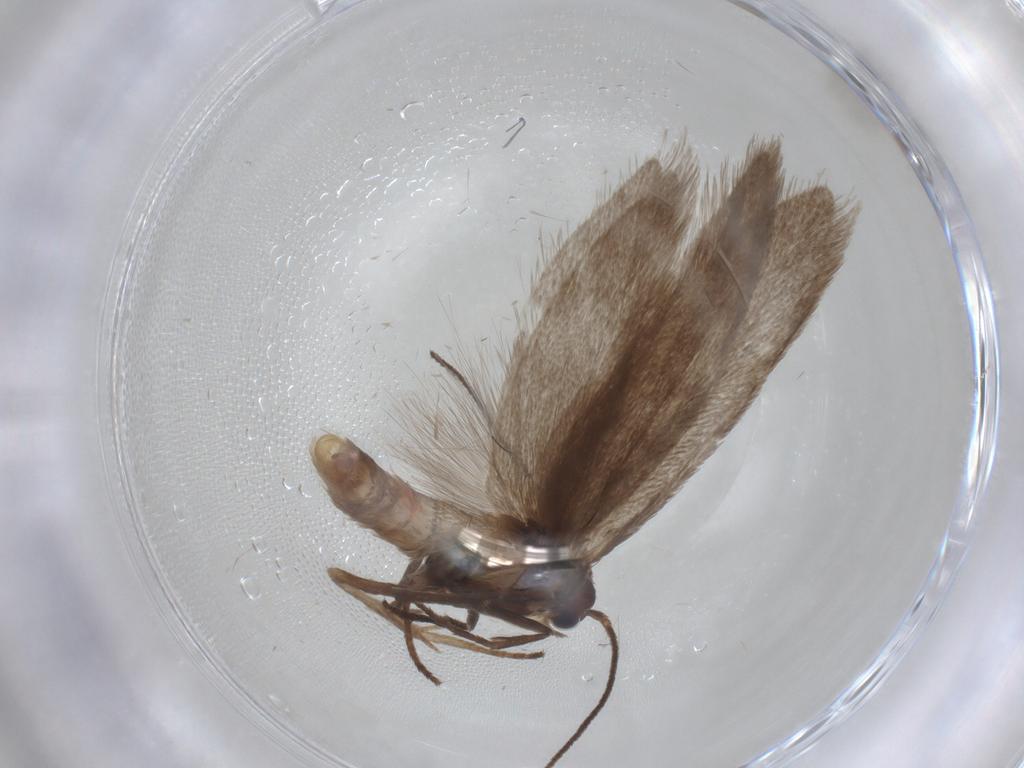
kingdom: Animalia
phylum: Arthropoda
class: Insecta
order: Lepidoptera
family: Limacodidae
